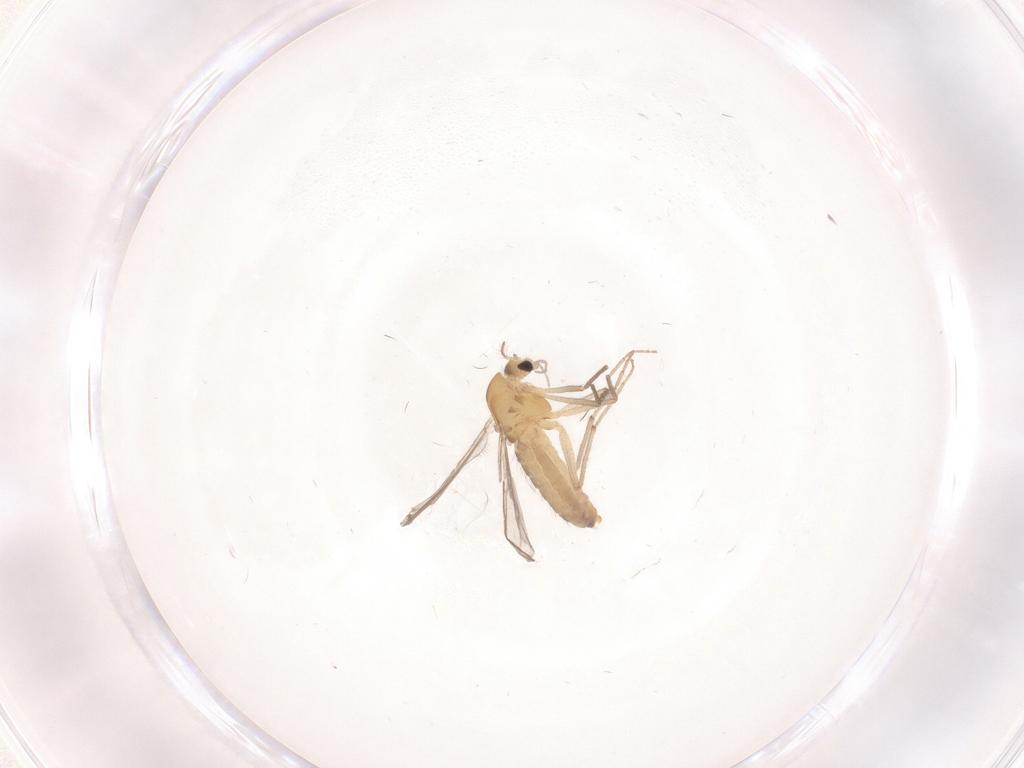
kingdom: Animalia
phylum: Arthropoda
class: Insecta
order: Diptera
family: Chironomidae
